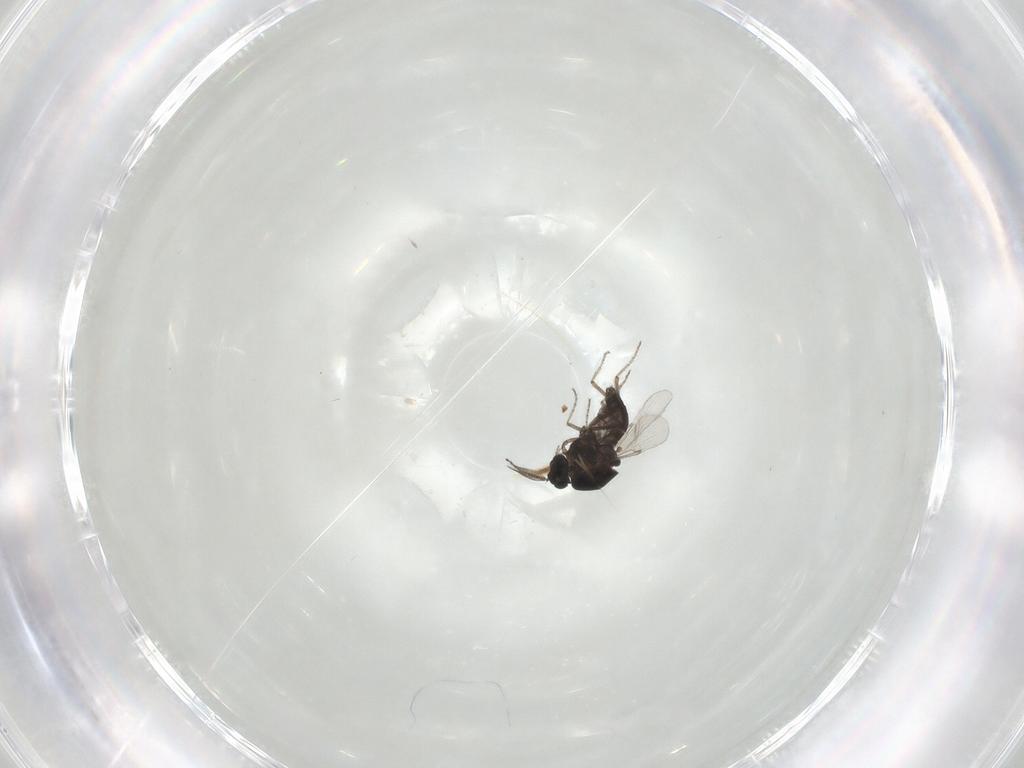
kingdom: Animalia
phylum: Arthropoda
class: Insecta
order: Diptera
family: Ceratopogonidae
